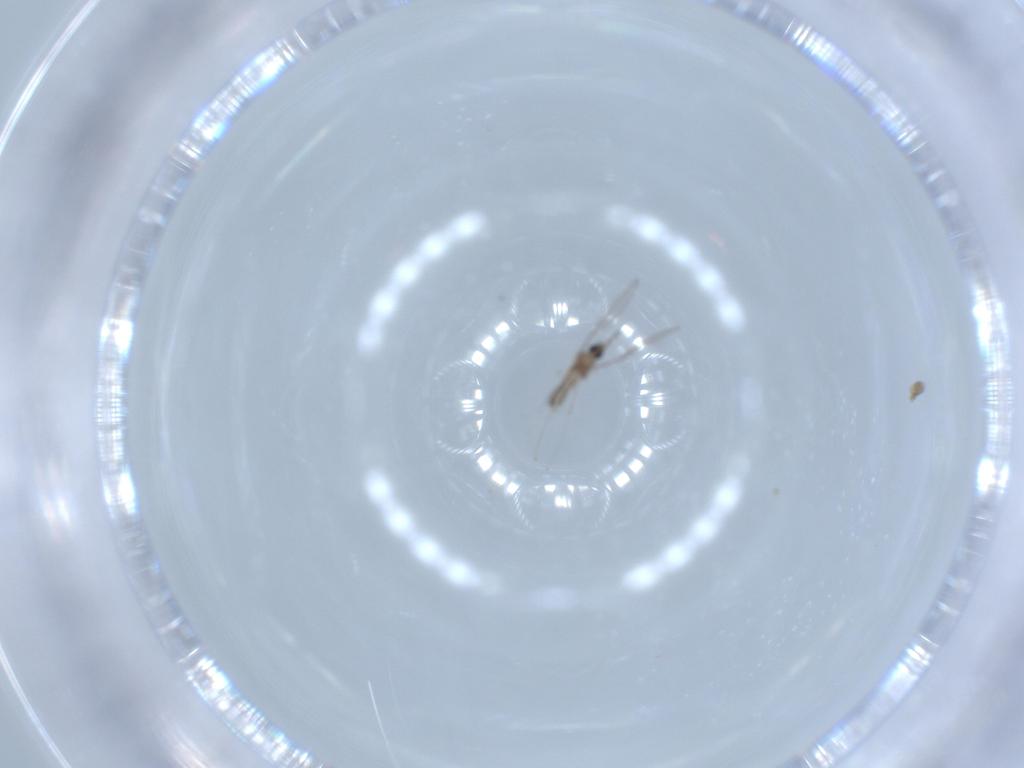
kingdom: Animalia
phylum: Arthropoda
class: Insecta
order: Diptera
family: Cecidomyiidae
